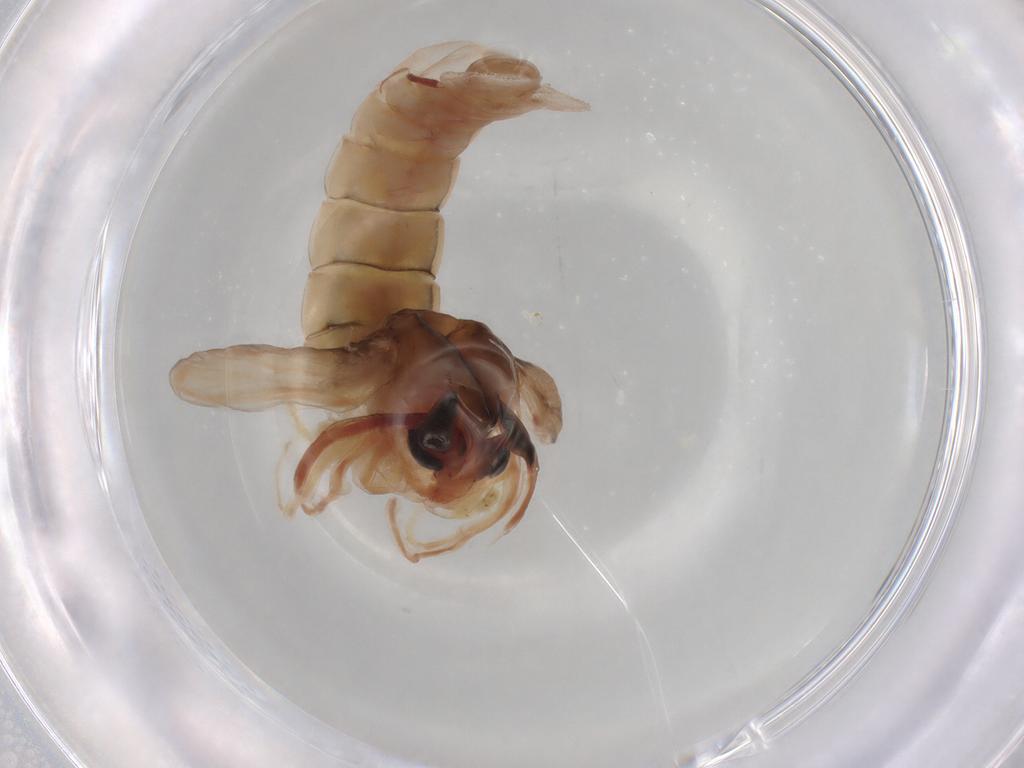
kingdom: Animalia
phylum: Arthropoda
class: Insecta
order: Diptera
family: Chironomidae
